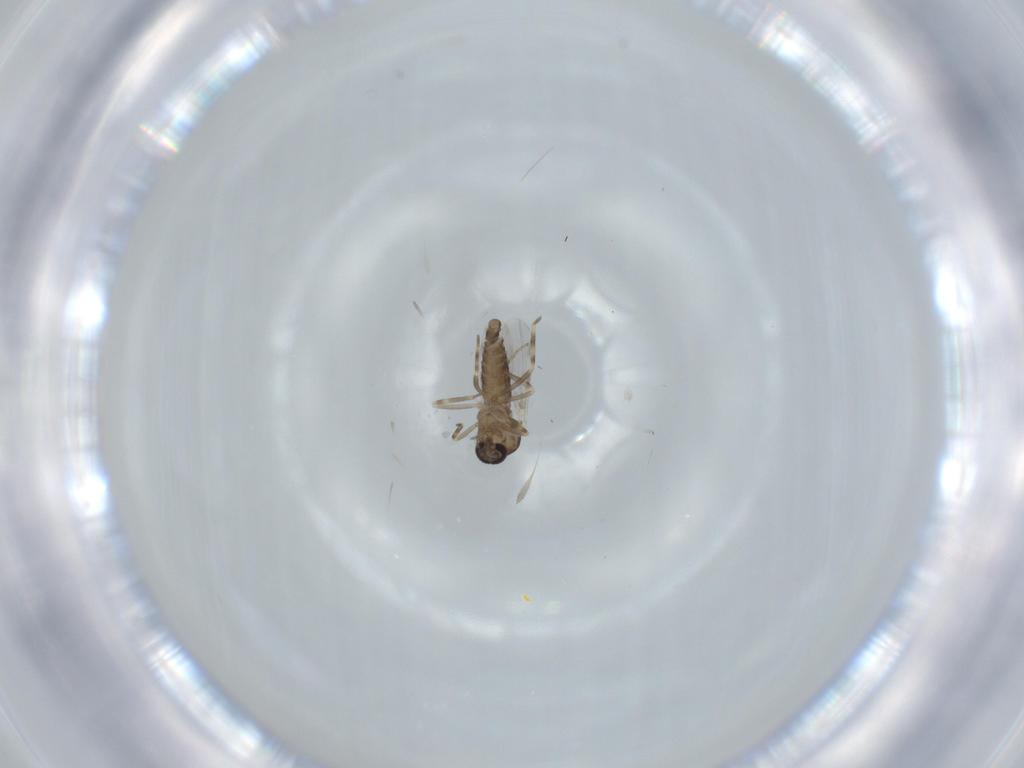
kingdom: Animalia
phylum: Arthropoda
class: Insecta
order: Diptera
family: Ceratopogonidae
